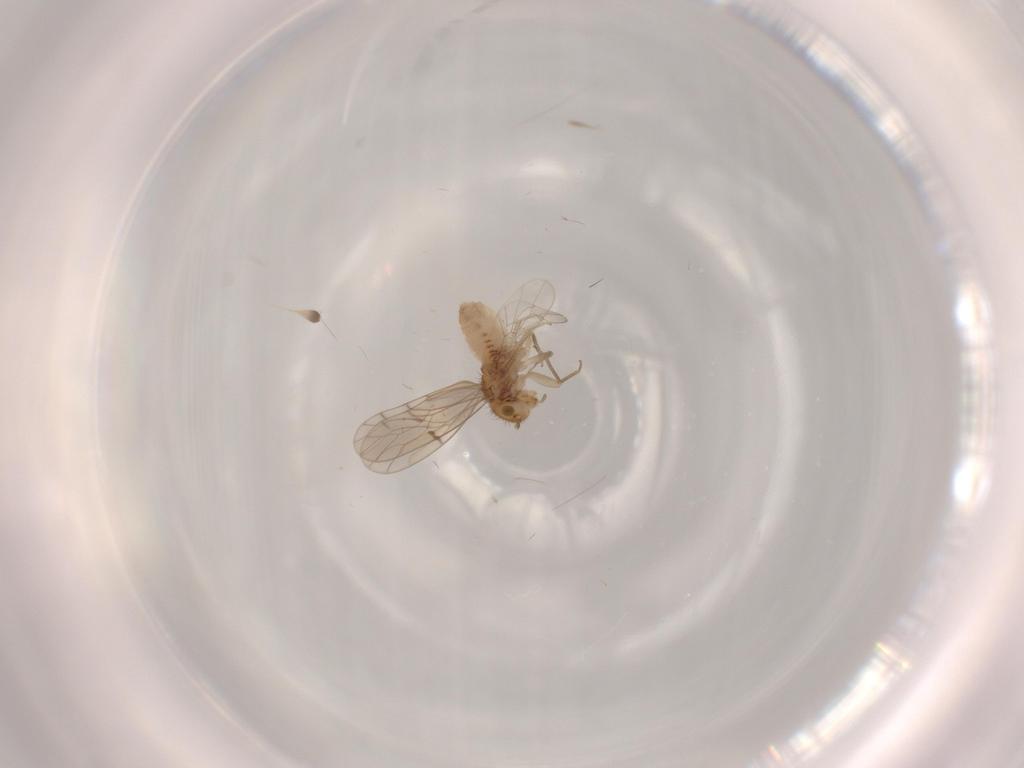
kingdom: Animalia
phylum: Arthropoda
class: Insecta
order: Psocodea
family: Ectopsocidae
